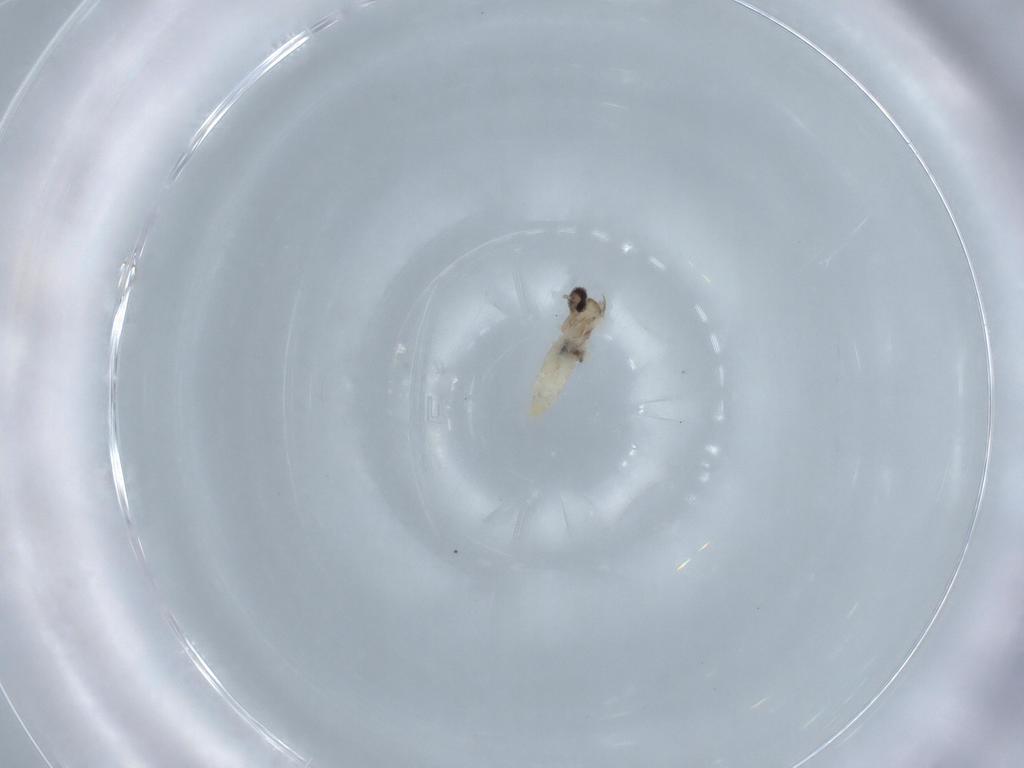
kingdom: Animalia
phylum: Arthropoda
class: Insecta
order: Diptera
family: Cecidomyiidae
